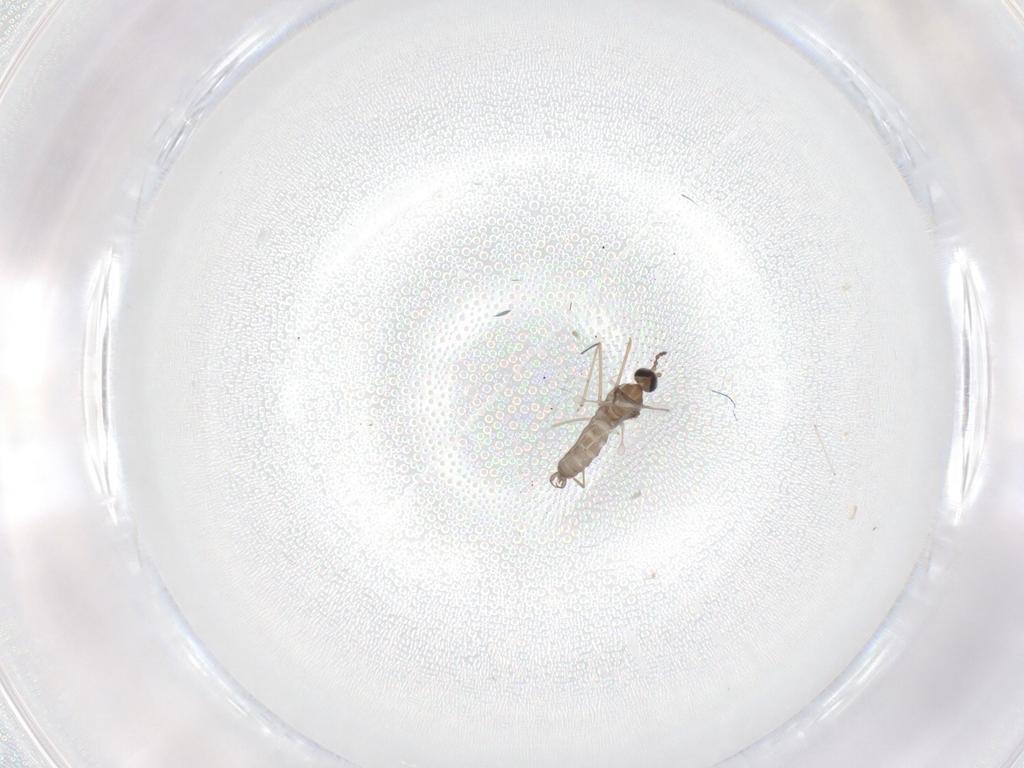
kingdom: Animalia
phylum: Arthropoda
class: Insecta
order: Diptera
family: Cecidomyiidae
